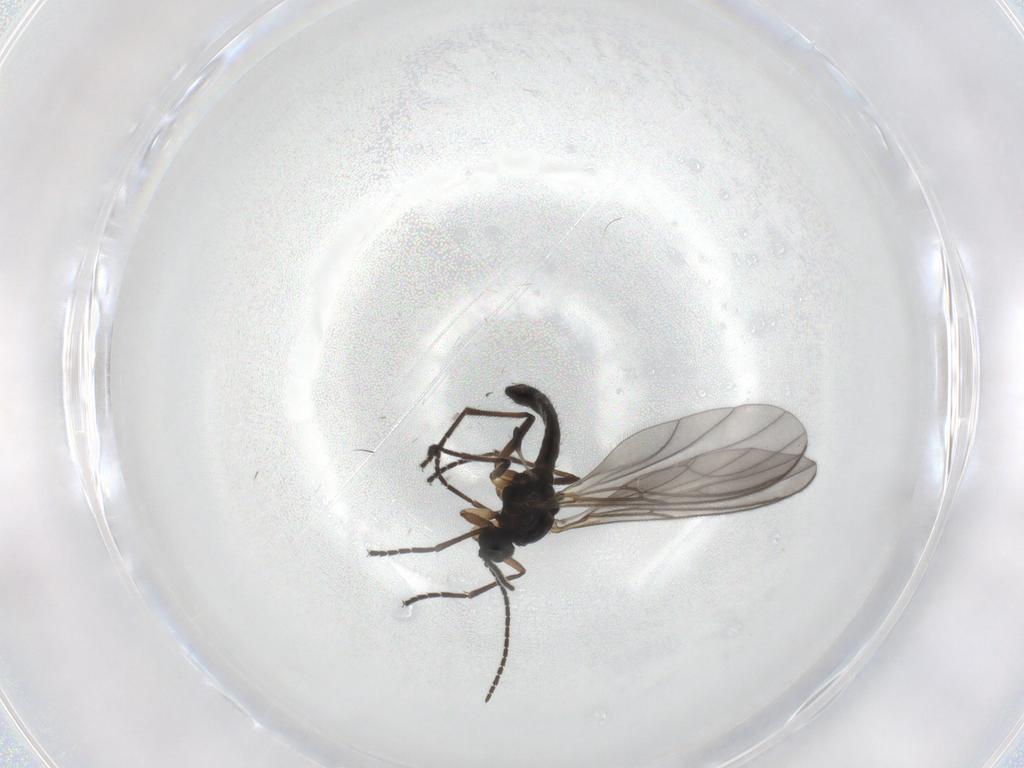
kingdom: Animalia
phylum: Arthropoda
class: Insecta
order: Diptera
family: Sciaridae
